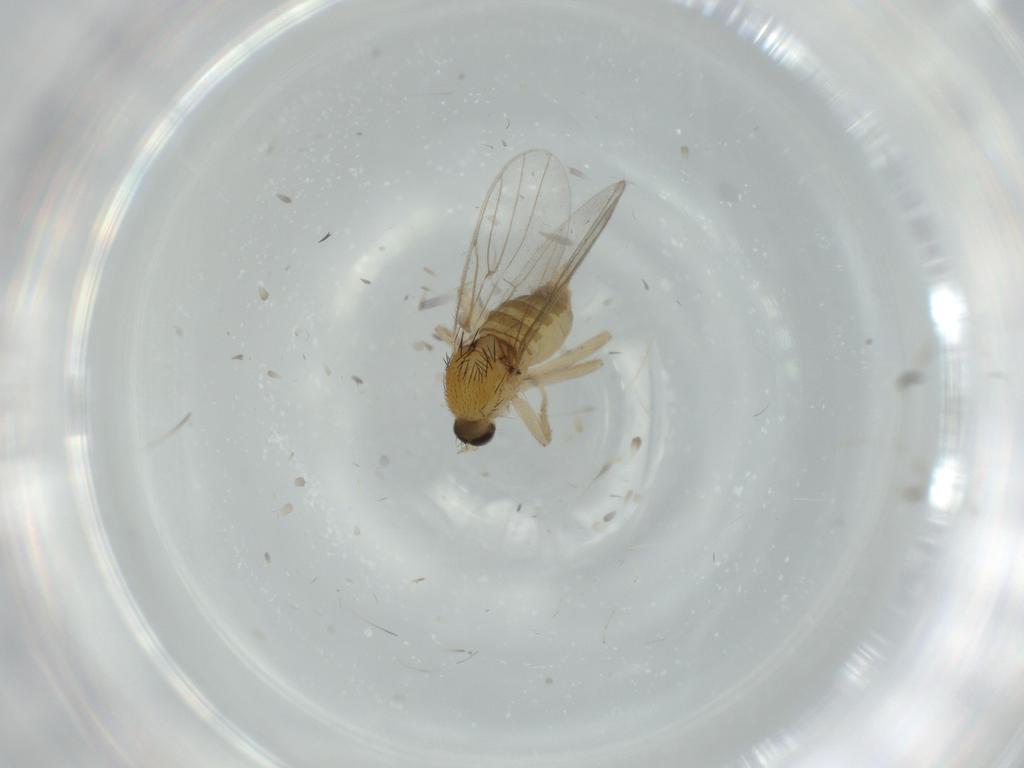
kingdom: Animalia
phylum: Arthropoda
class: Insecta
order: Diptera
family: Hybotidae
